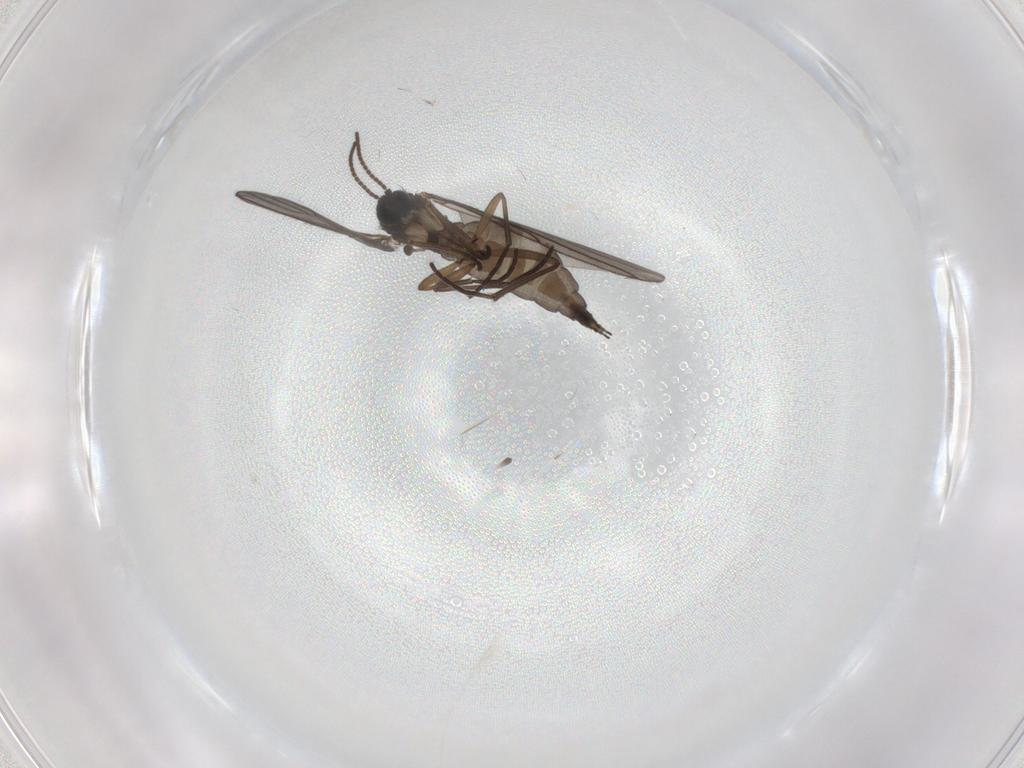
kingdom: Animalia
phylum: Arthropoda
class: Insecta
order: Diptera
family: Sciaridae
